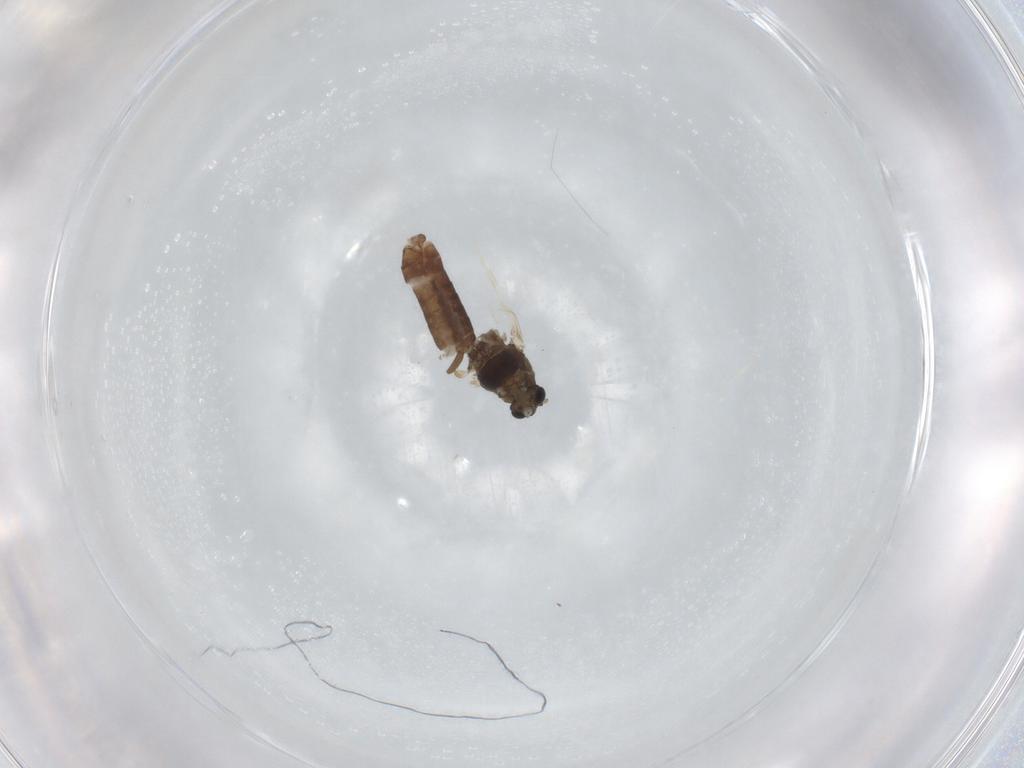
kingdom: Animalia
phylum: Arthropoda
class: Insecta
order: Diptera
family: Chironomidae
